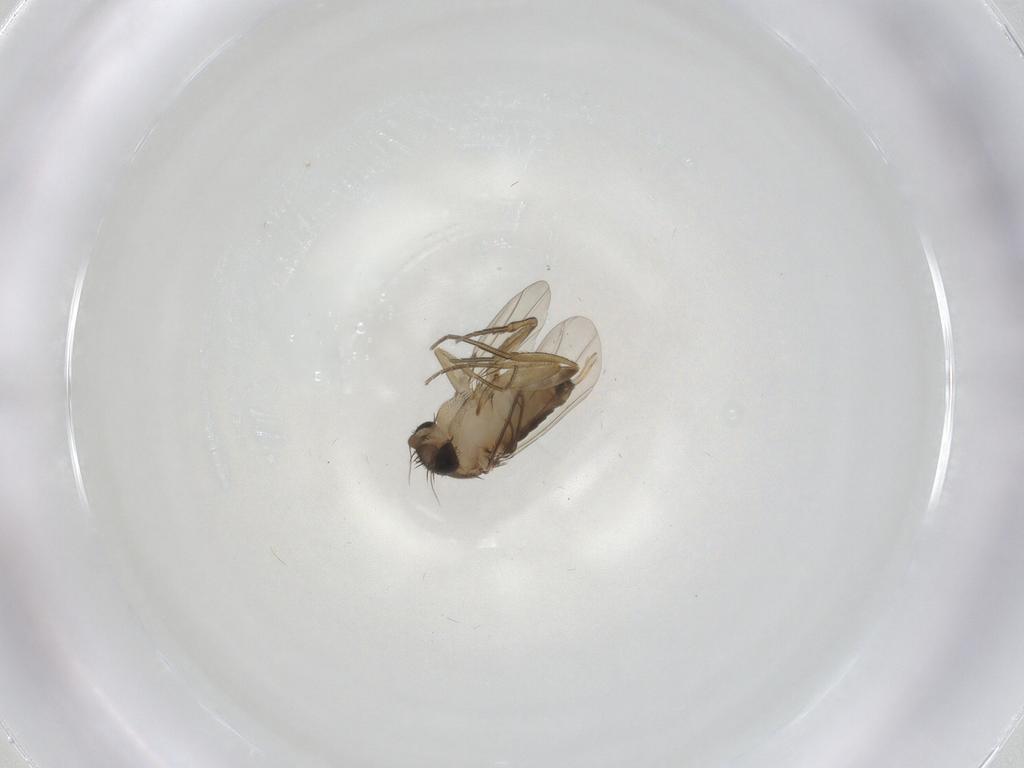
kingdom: Animalia
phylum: Arthropoda
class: Insecta
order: Diptera
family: Phoridae
